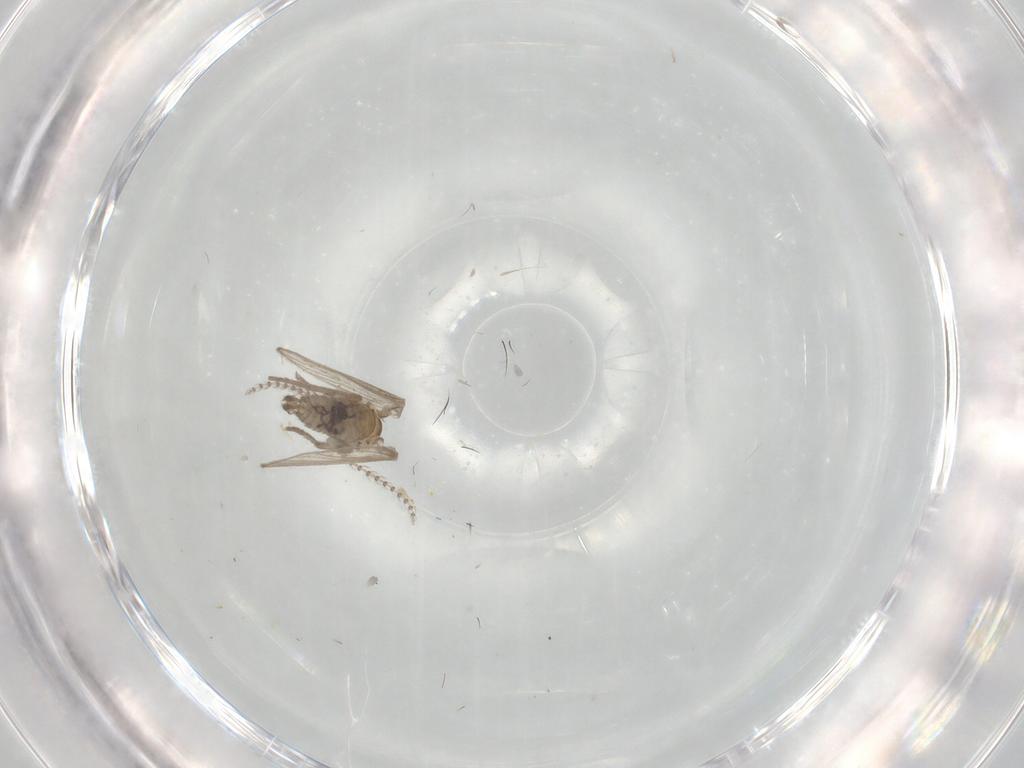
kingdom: Animalia
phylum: Arthropoda
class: Insecta
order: Diptera
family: Psychodidae
